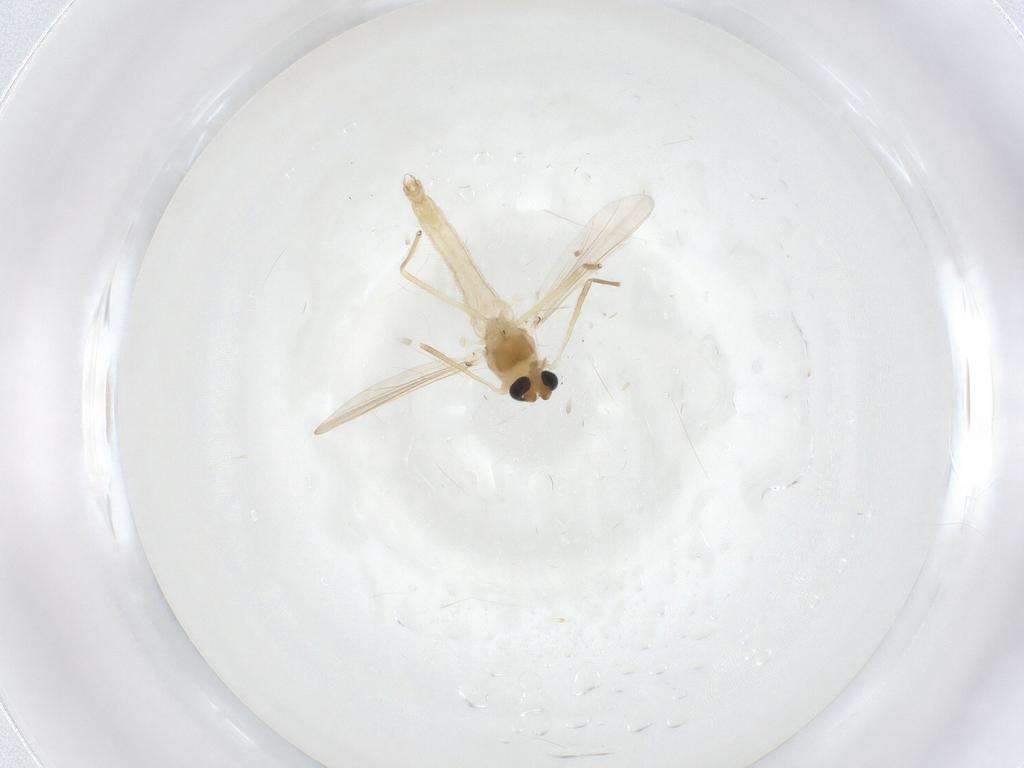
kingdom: Animalia
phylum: Arthropoda
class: Insecta
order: Diptera
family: Chironomidae
